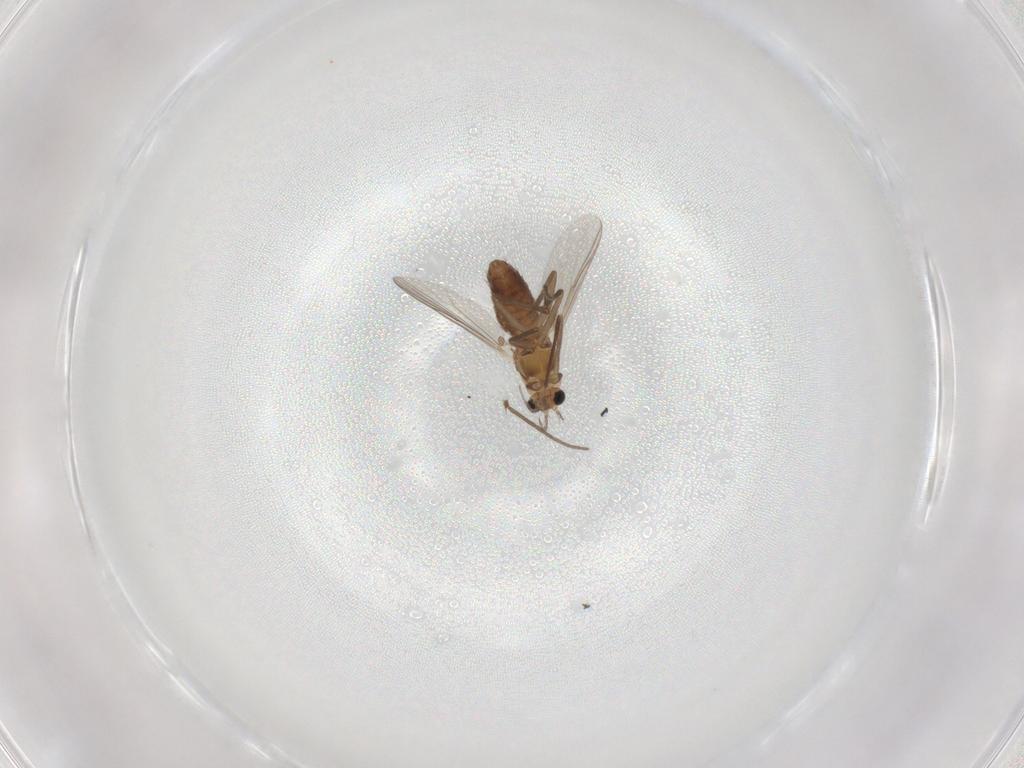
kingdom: Animalia
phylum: Arthropoda
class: Insecta
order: Diptera
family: Chironomidae
